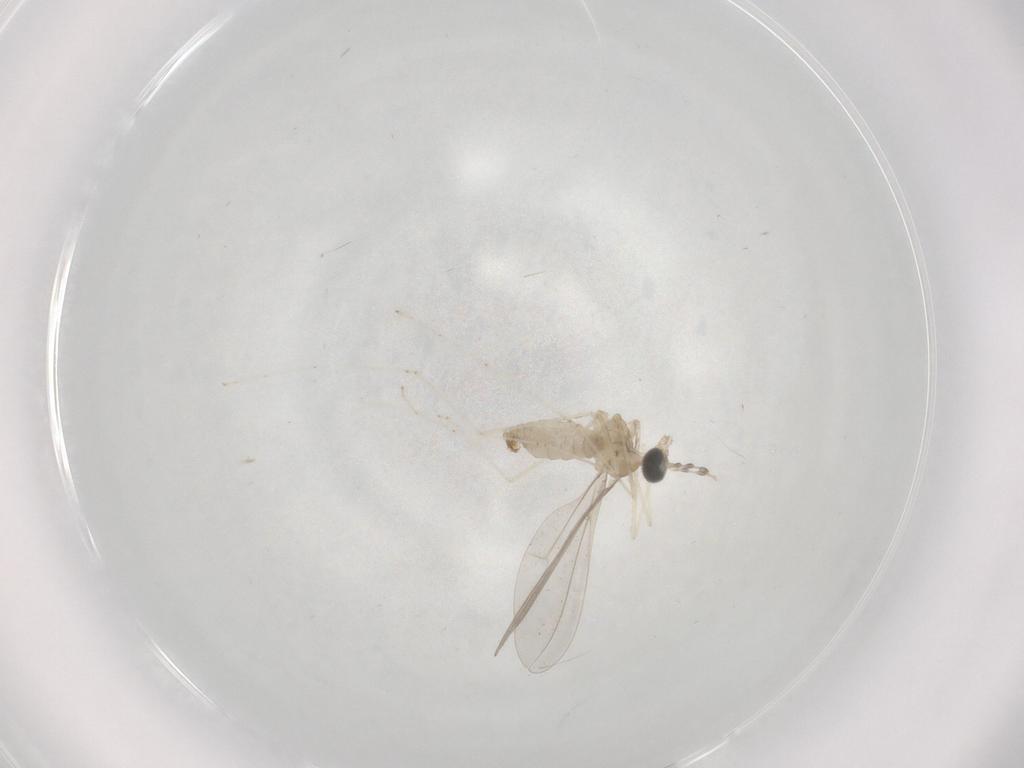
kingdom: Animalia
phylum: Arthropoda
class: Insecta
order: Diptera
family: Cecidomyiidae
